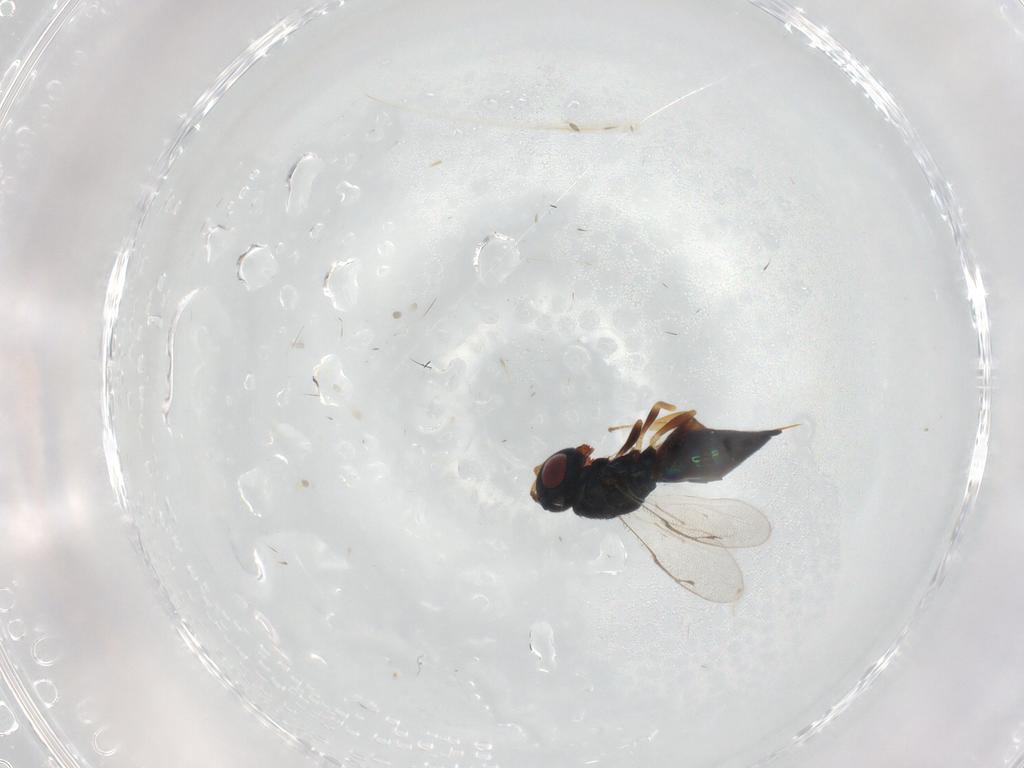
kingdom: Animalia
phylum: Arthropoda
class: Insecta
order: Hymenoptera
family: Pteromalidae
